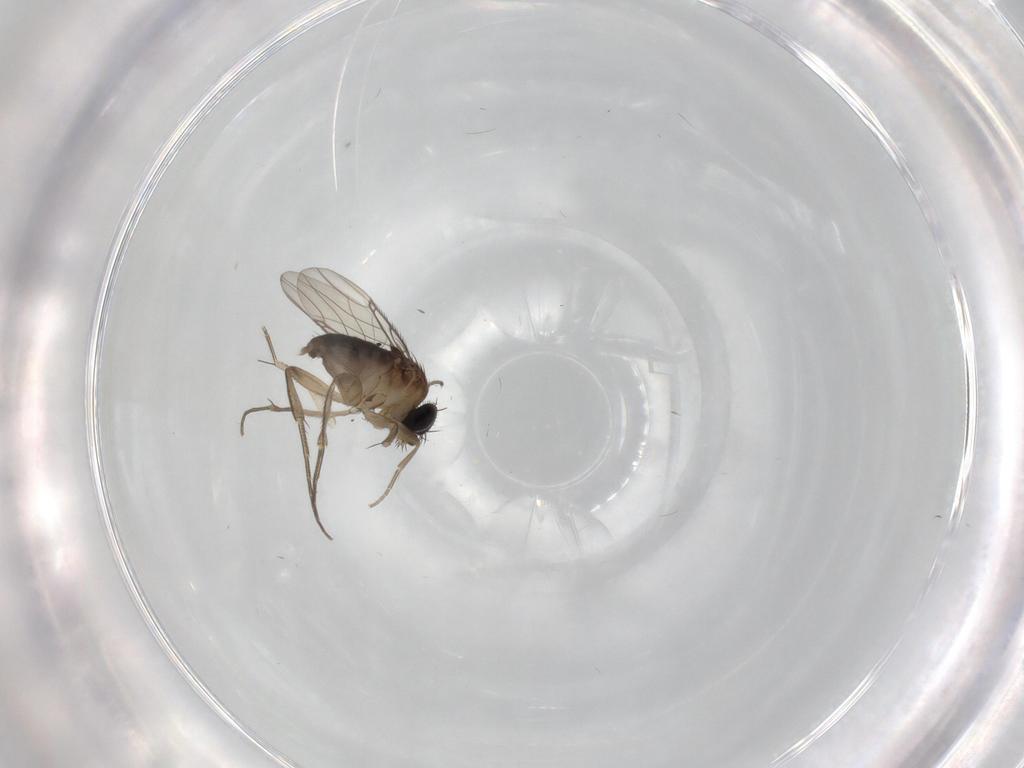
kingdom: Animalia
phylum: Arthropoda
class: Insecta
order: Diptera
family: Phoridae
